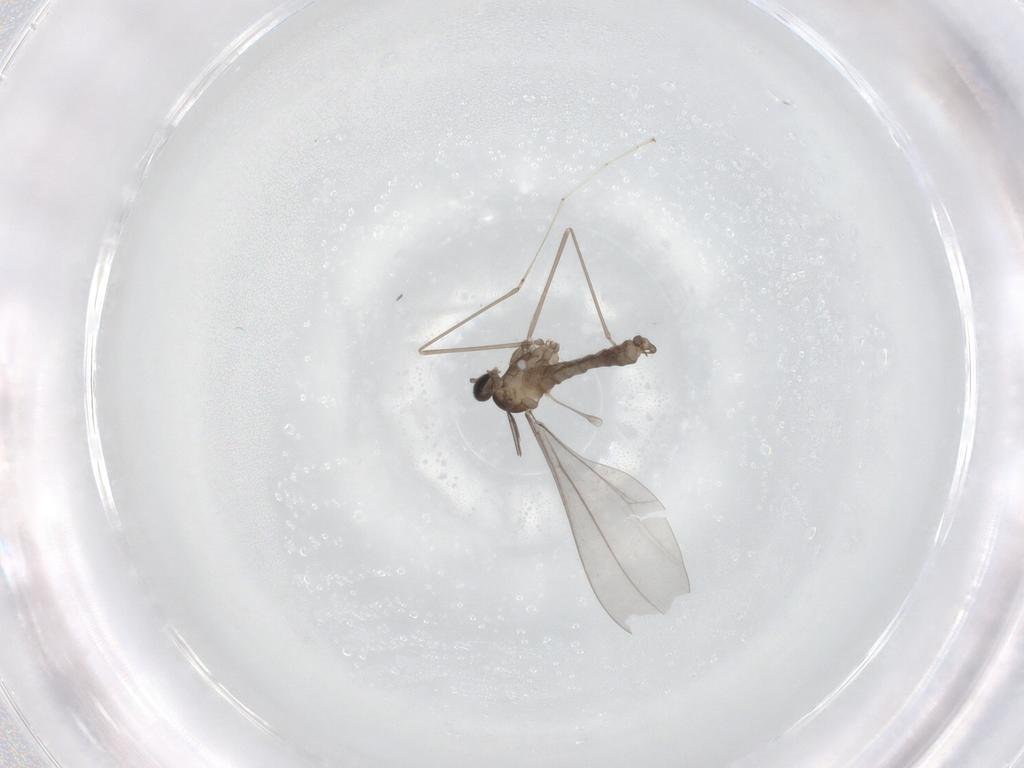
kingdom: Animalia
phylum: Arthropoda
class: Insecta
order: Diptera
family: Cecidomyiidae
